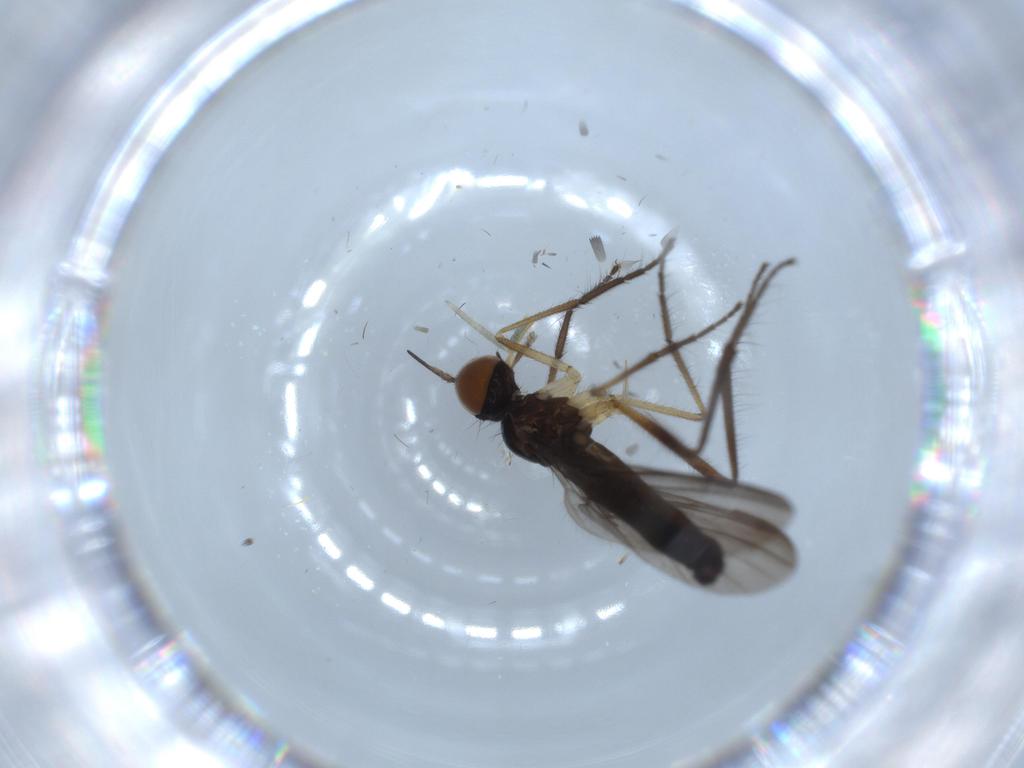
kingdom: Animalia
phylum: Arthropoda
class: Insecta
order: Diptera
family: Empididae
